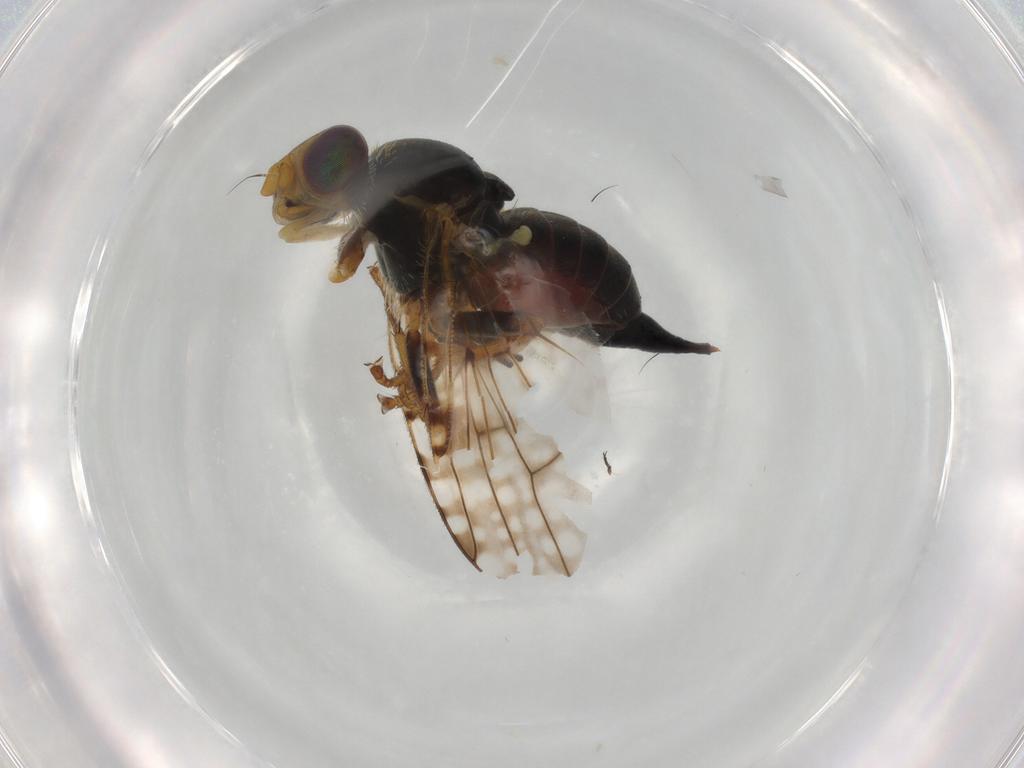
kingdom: Animalia
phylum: Arthropoda
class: Insecta
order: Diptera
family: Tephritidae
